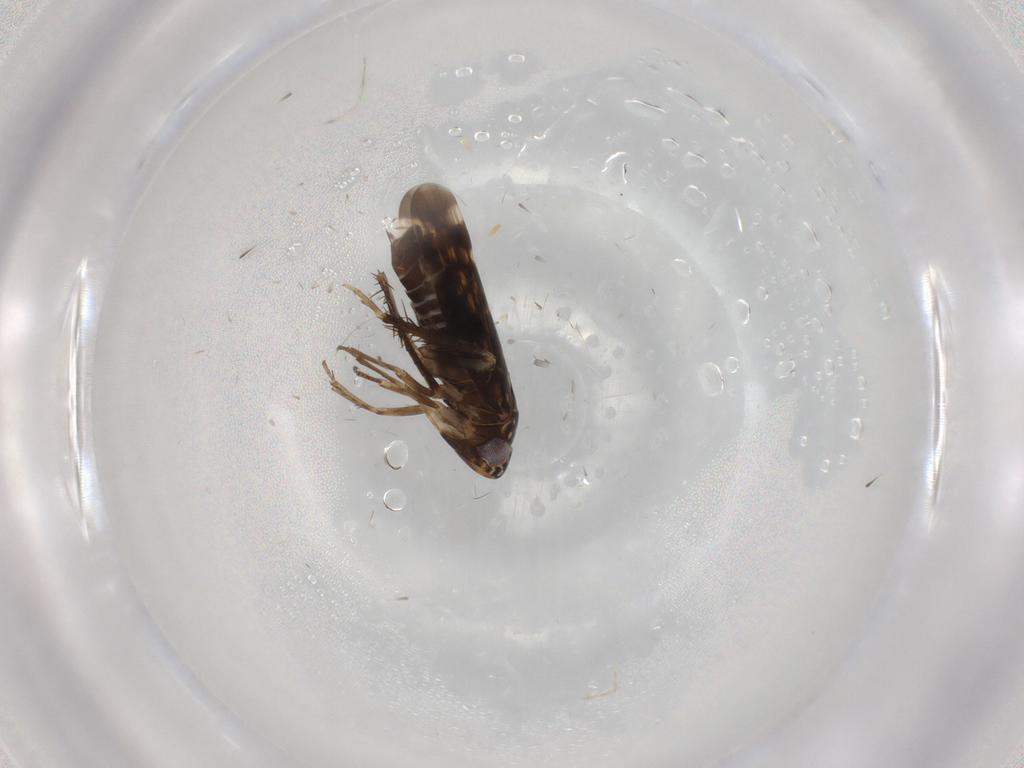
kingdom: Animalia
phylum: Arthropoda
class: Insecta
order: Hemiptera
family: Cicadellidae
